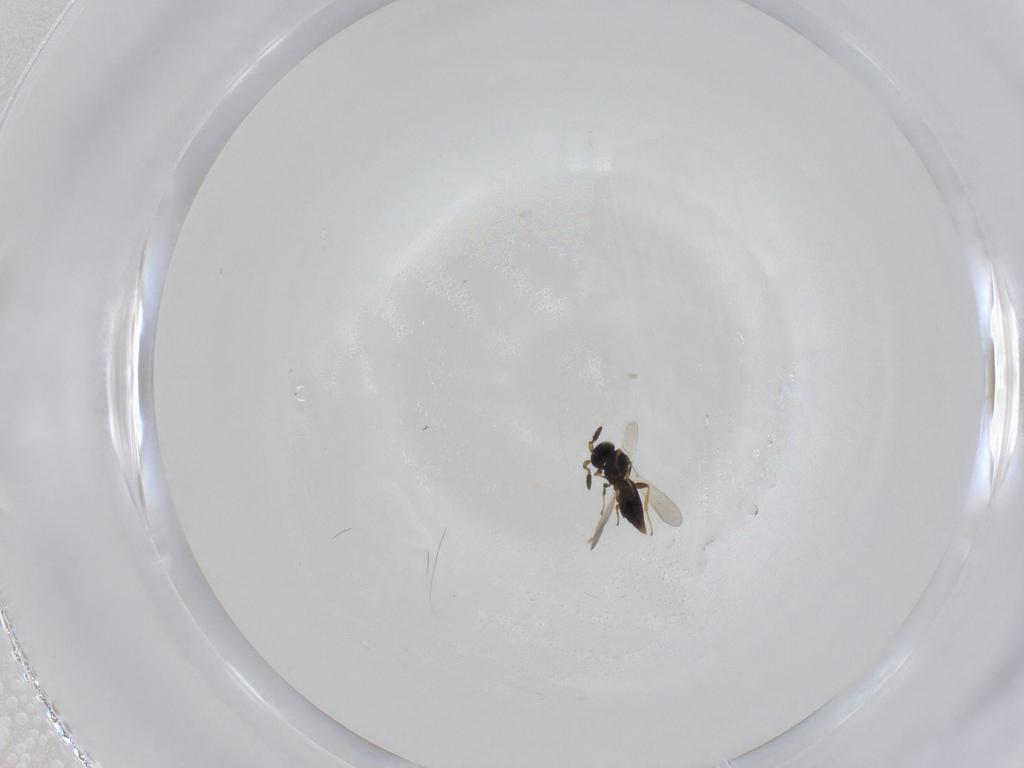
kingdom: Animalia
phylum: Arthropoda
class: Insecta
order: Hymenoptera
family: Platygastridae
